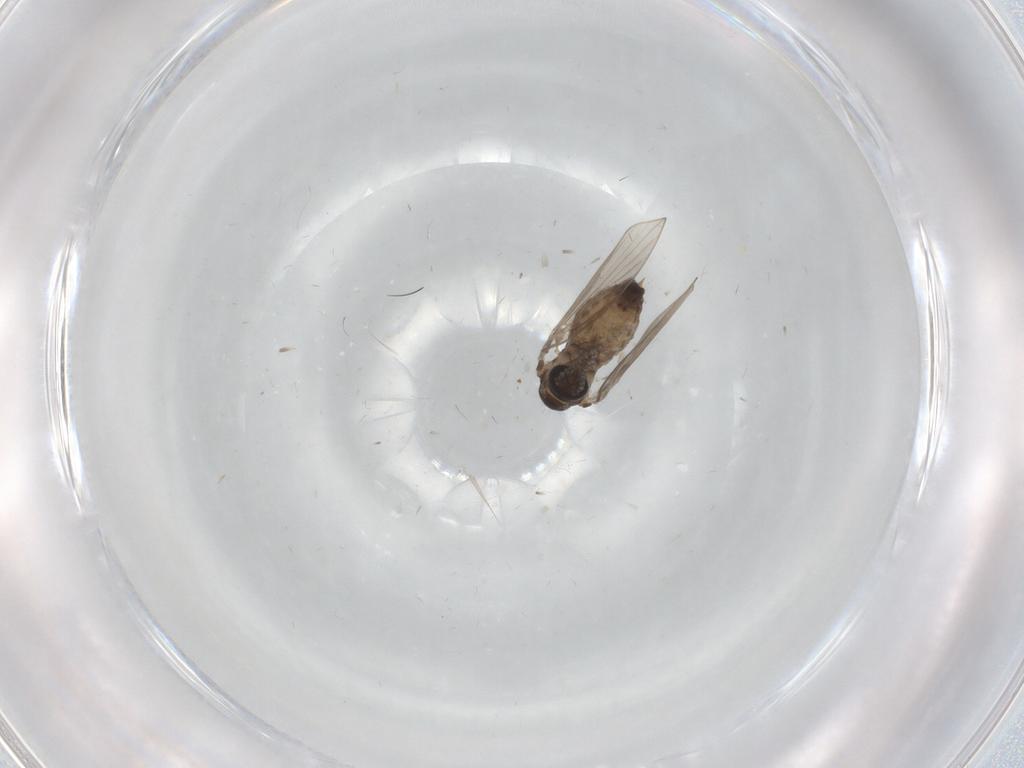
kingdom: Animalia
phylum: Arthropoda
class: Insecta
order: Diptera
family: Psychodidae
